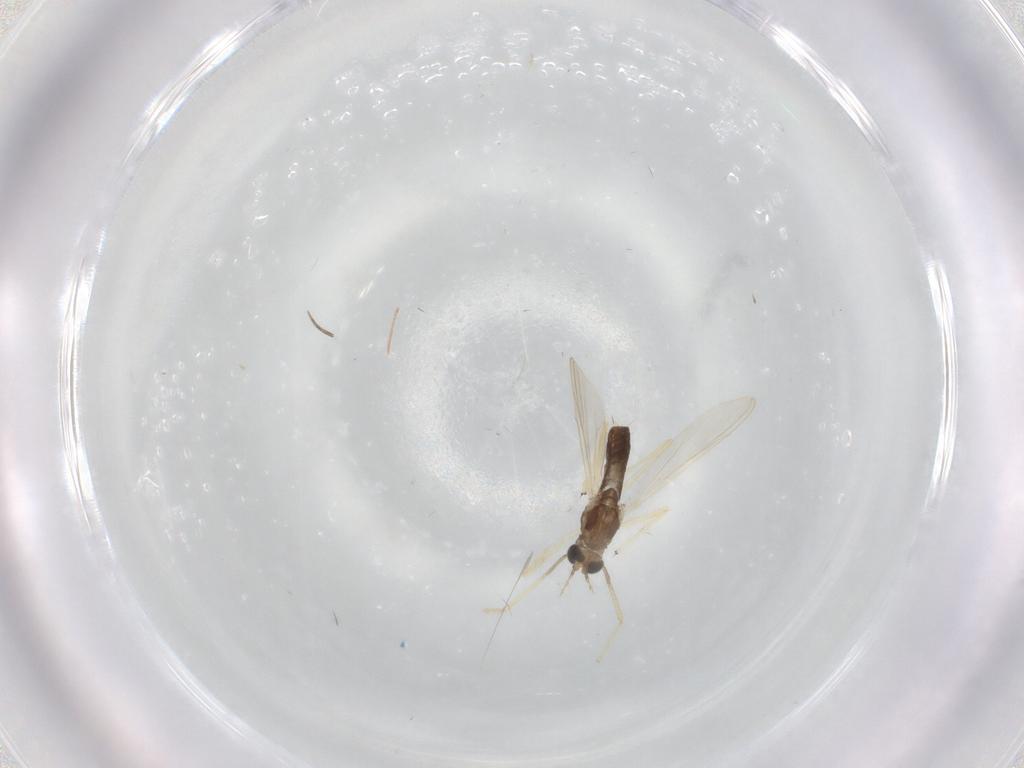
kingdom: Animalia
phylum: Arthropoda
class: Insecta
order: Diptera
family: Chironomidae
